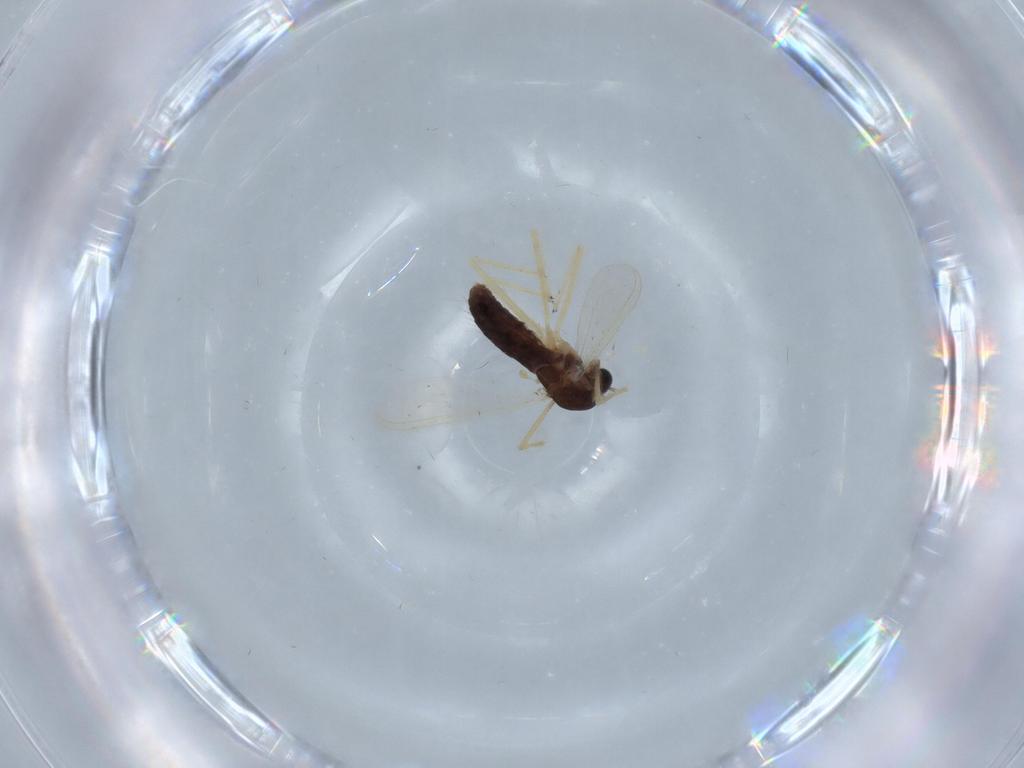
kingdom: Animalia
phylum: Arthropoda
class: Insecta
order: Diptera
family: Chironomidae
